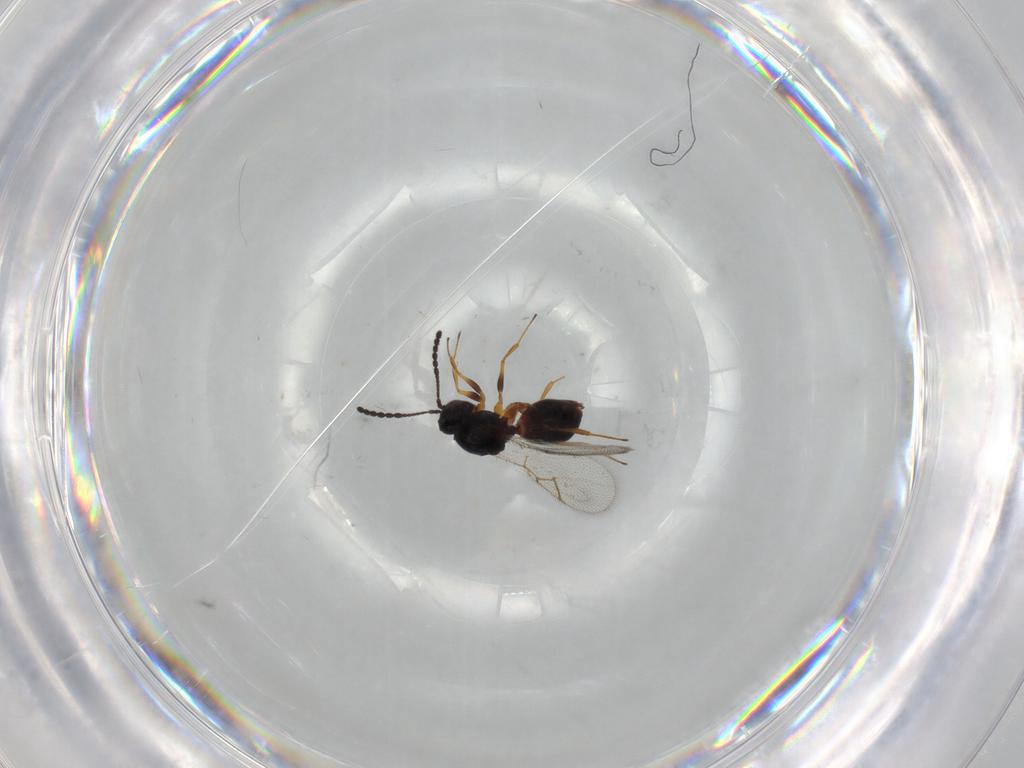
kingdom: Animalia
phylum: Arthropoda
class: Insecta
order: Hymenoptera
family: Figitidae
